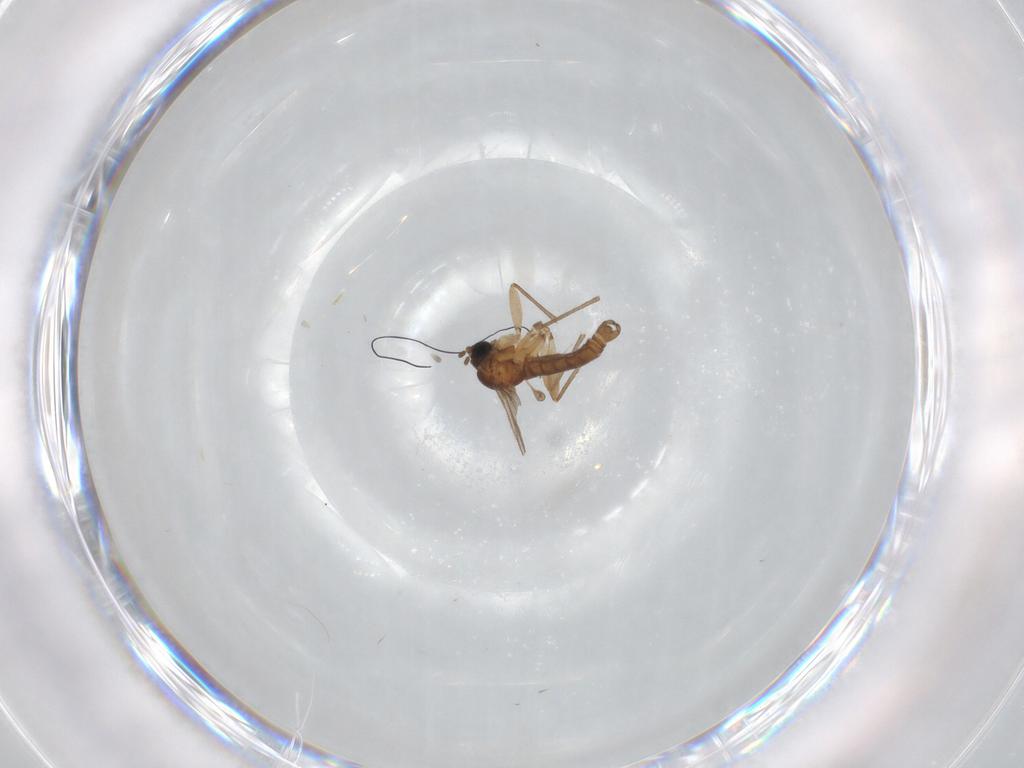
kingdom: Animalia
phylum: Arthropoda
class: Insecta
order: Diptera
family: Sciaridae
